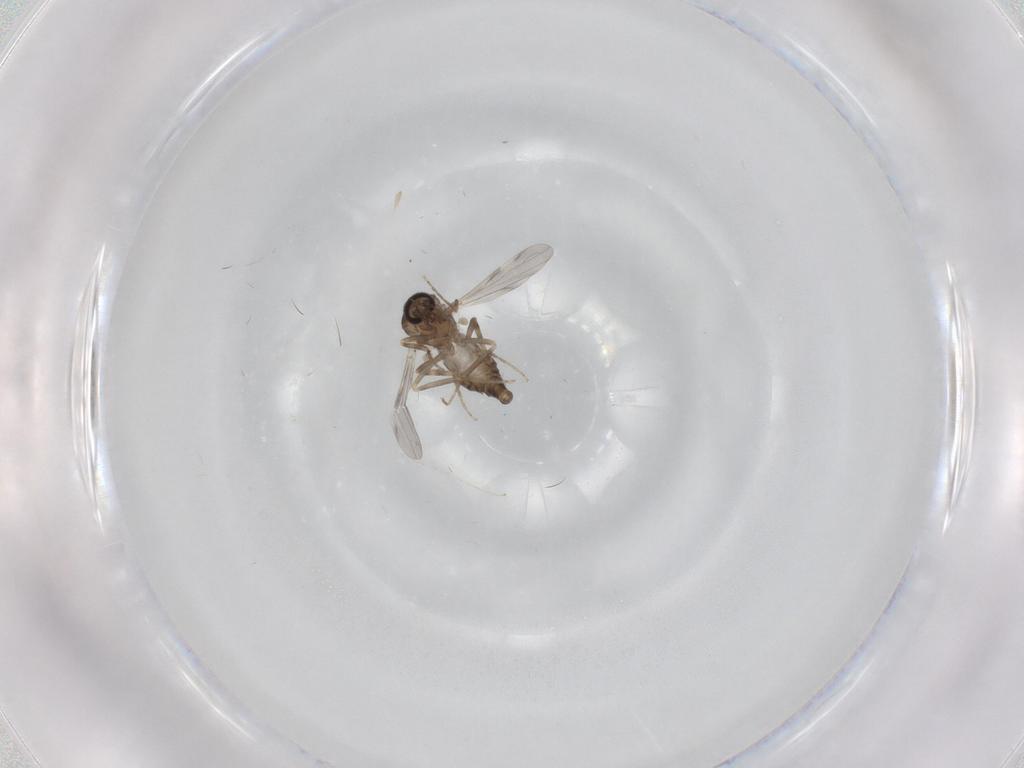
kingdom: Animalia
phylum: Arthropoda
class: Insecta
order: Diptera
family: Ceratopogonidae
